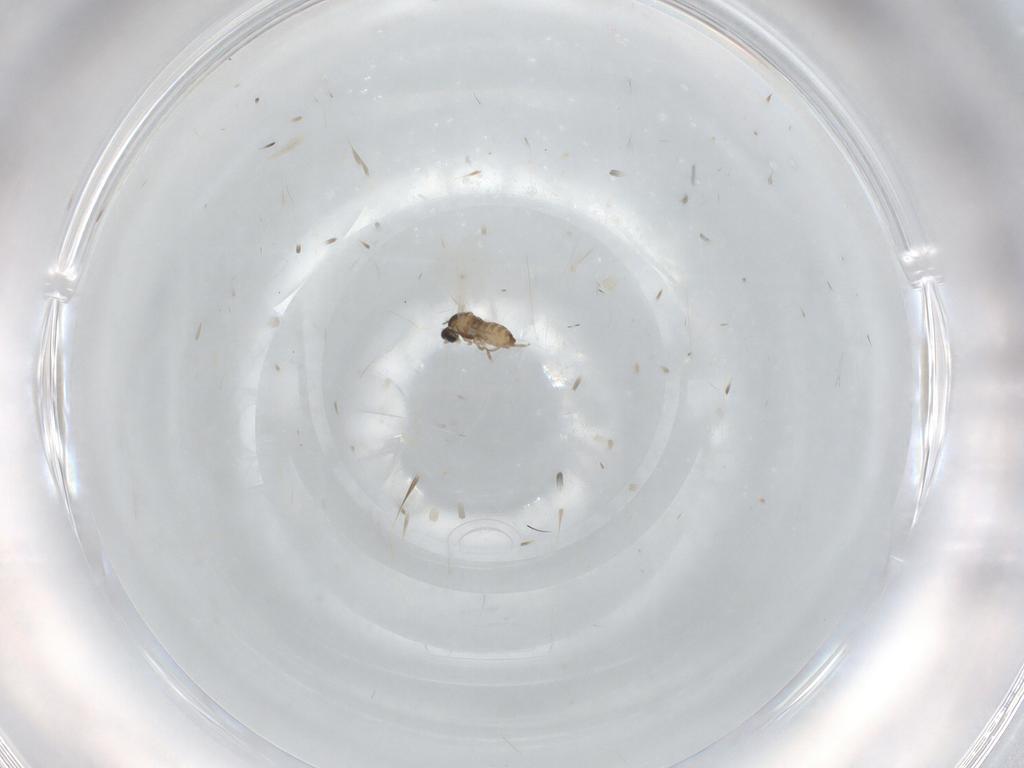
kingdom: Animalia
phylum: Arthropoda
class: Insecta
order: Diptera
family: Cecidomyiidae
